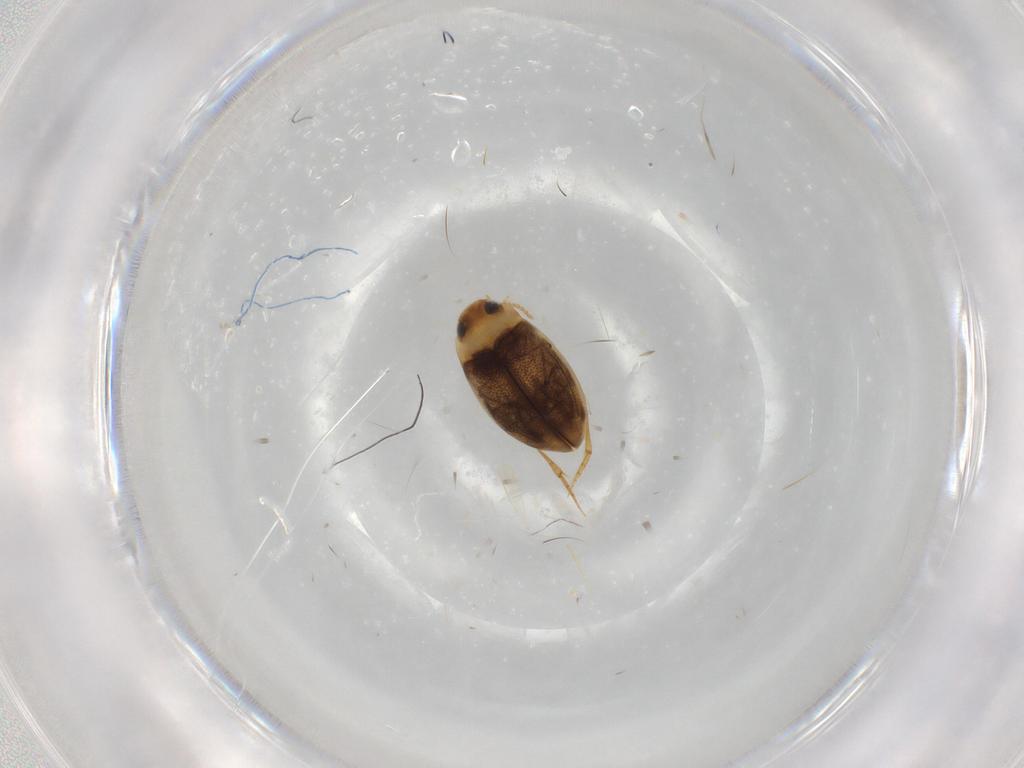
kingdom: Animalia
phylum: Arthropoda
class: Insecta
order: Coleoptera
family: Dytiscidae
